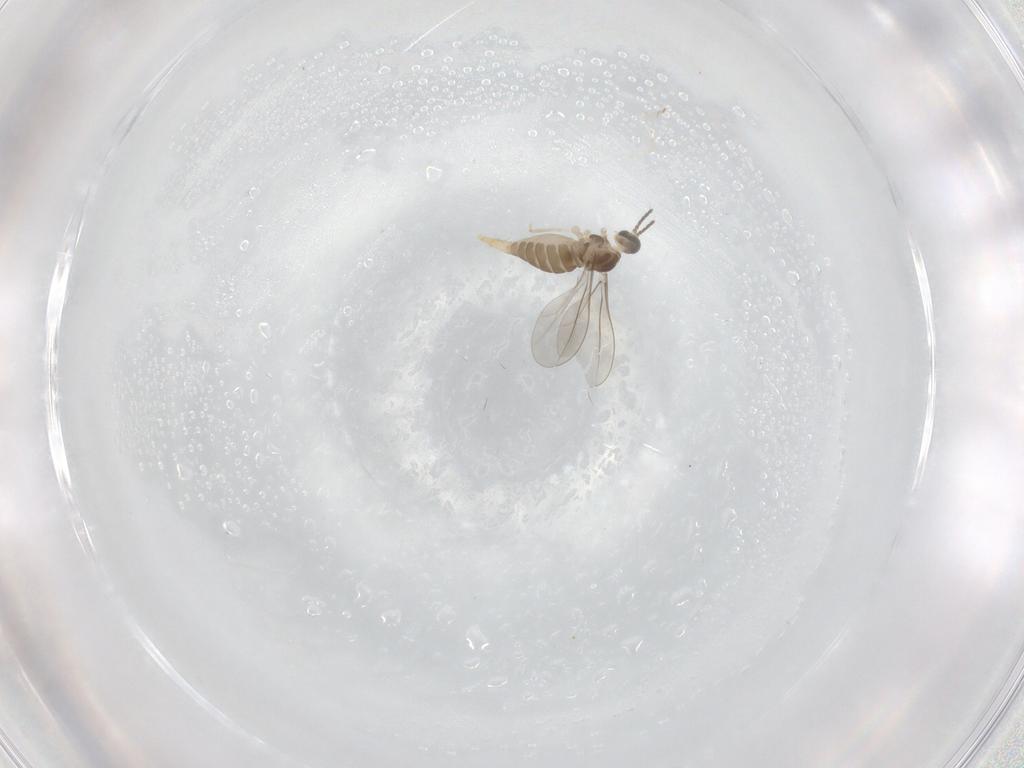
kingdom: Animalia
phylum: Arthropoda
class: Insecta
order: Diptera
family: Cecidomyiidae
